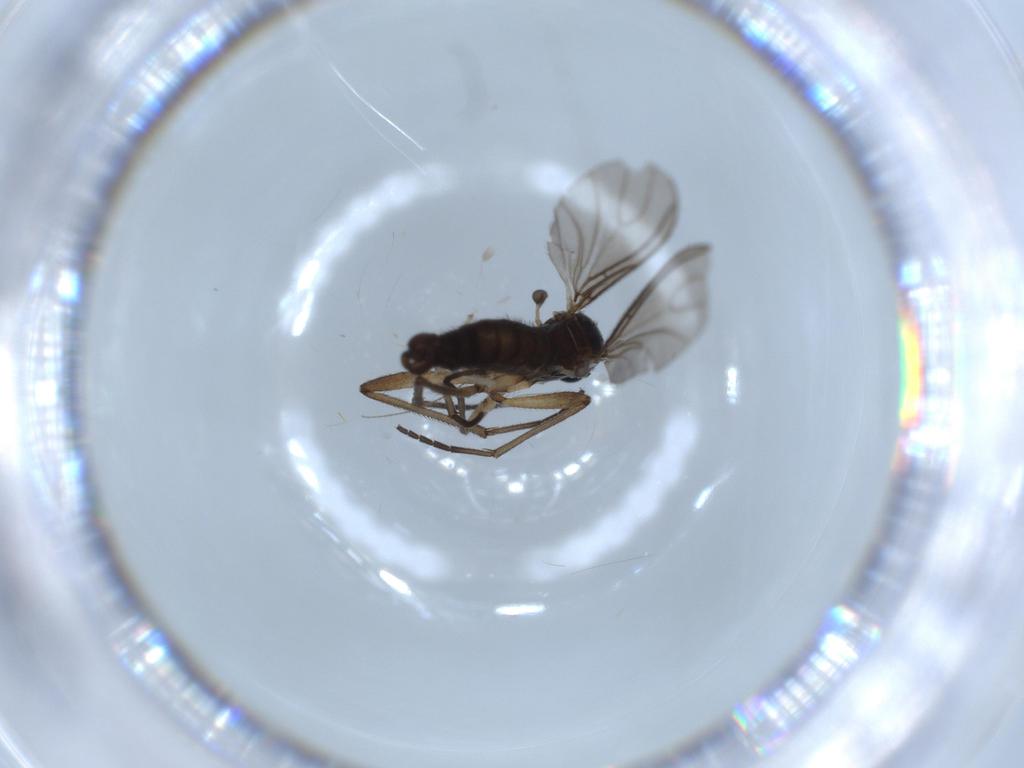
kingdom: Animalia
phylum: Arthropoda
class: Insecta
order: Diptera
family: Sciaridae
